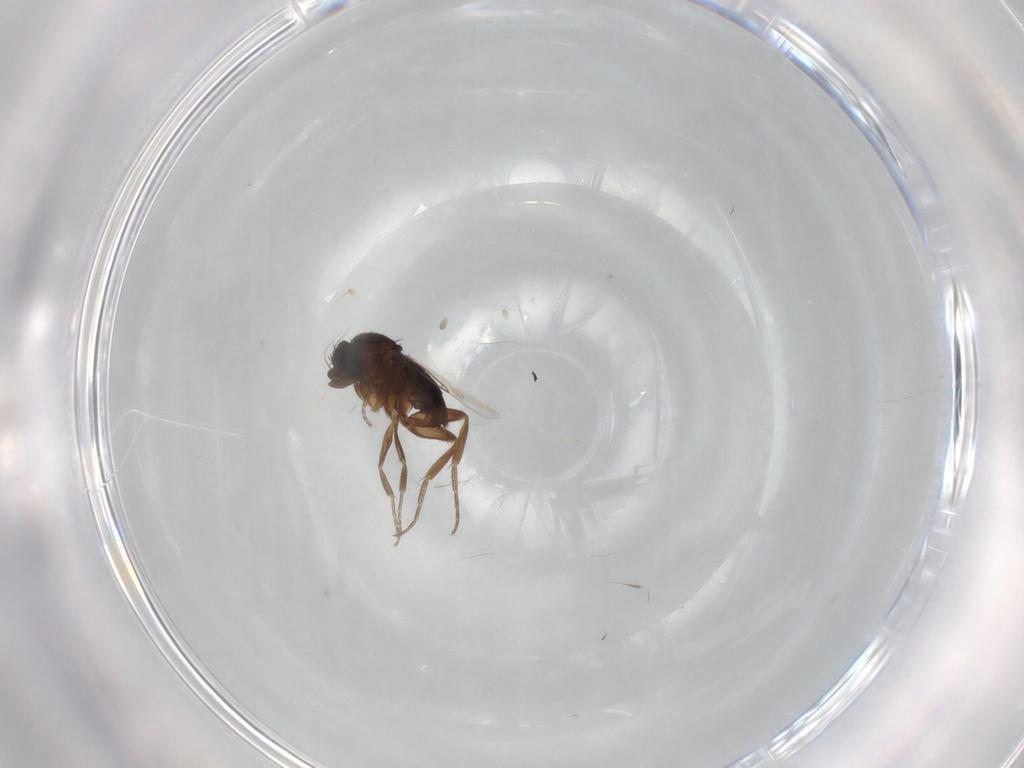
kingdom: Animalia
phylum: Arthropoda
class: Insecta
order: Diptera
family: Phoridae
